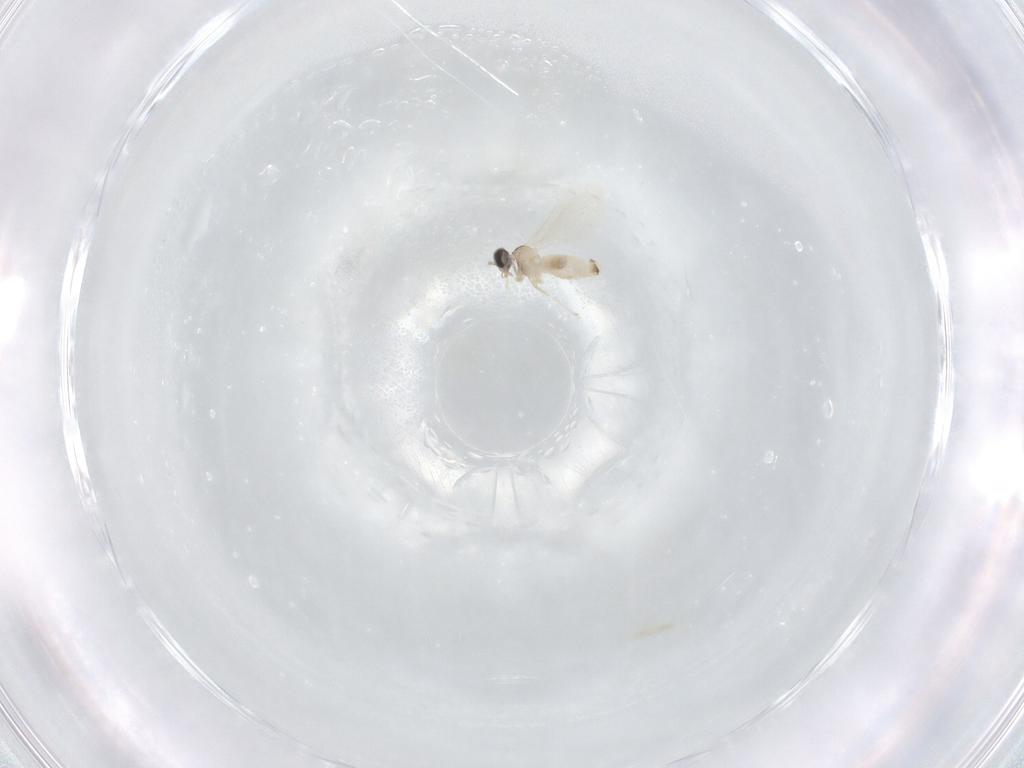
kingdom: Animalia
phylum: Arthropoda
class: Insecta
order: Diptera
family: Cecidomyiidae
